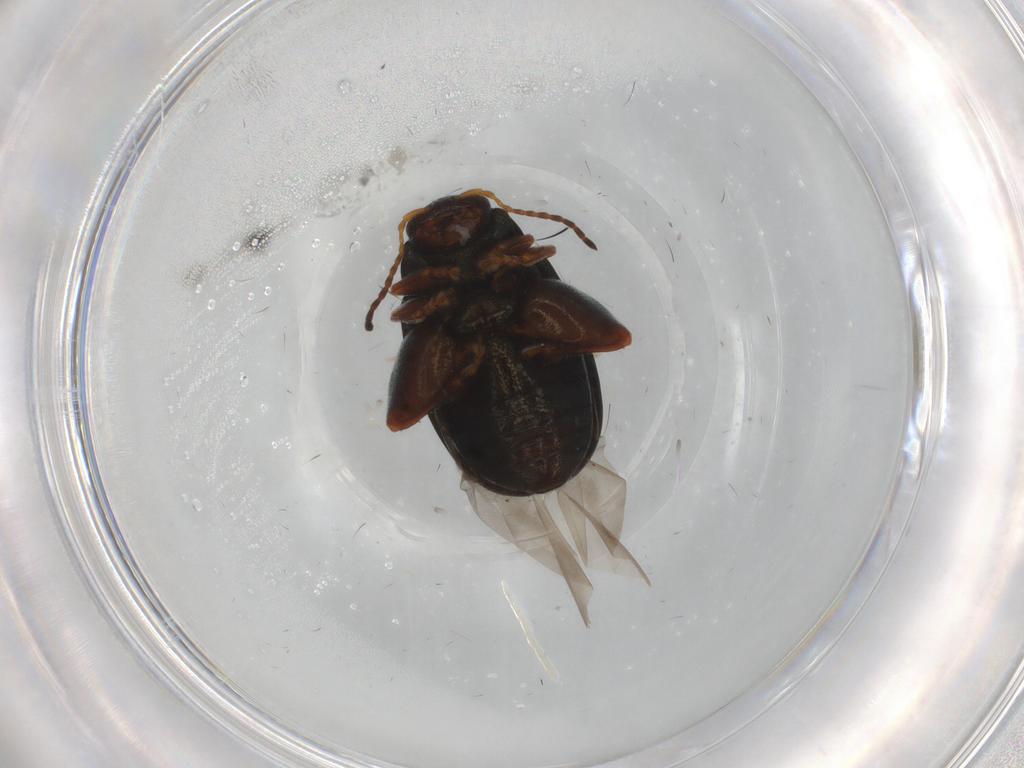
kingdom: Animalia
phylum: Arthropoda
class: Insecta
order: Coleoptera
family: Chrysomelidae
